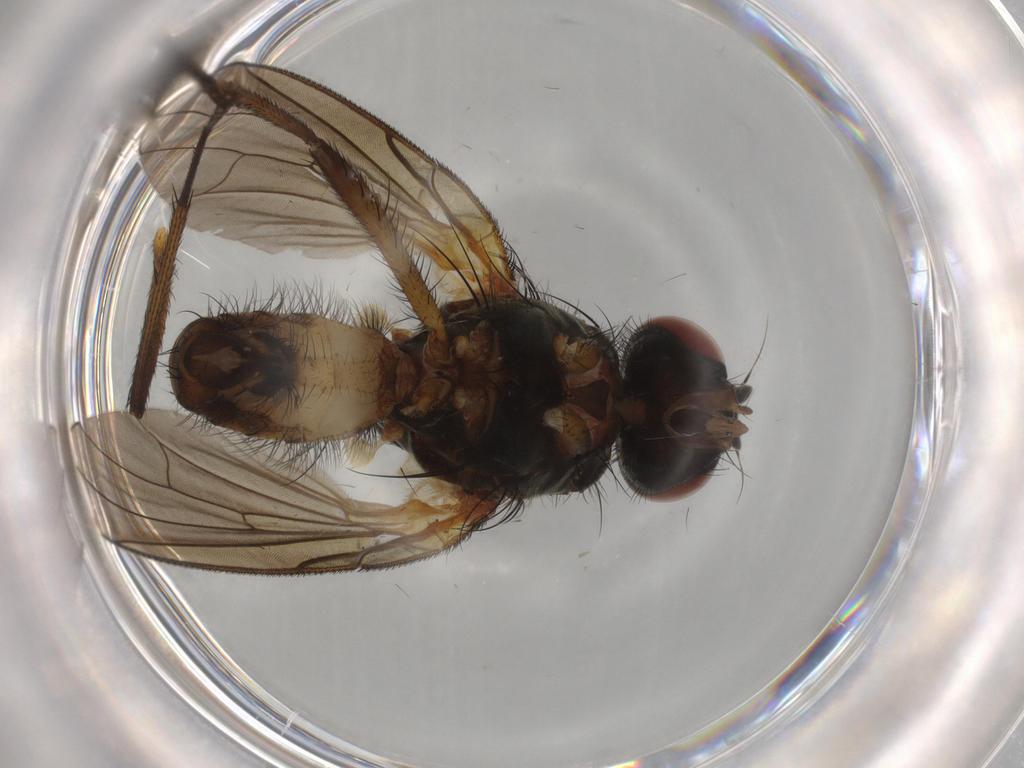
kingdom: Animalia
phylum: Arthropoda
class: Insecta
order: Diptera
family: Anthomyiidae
